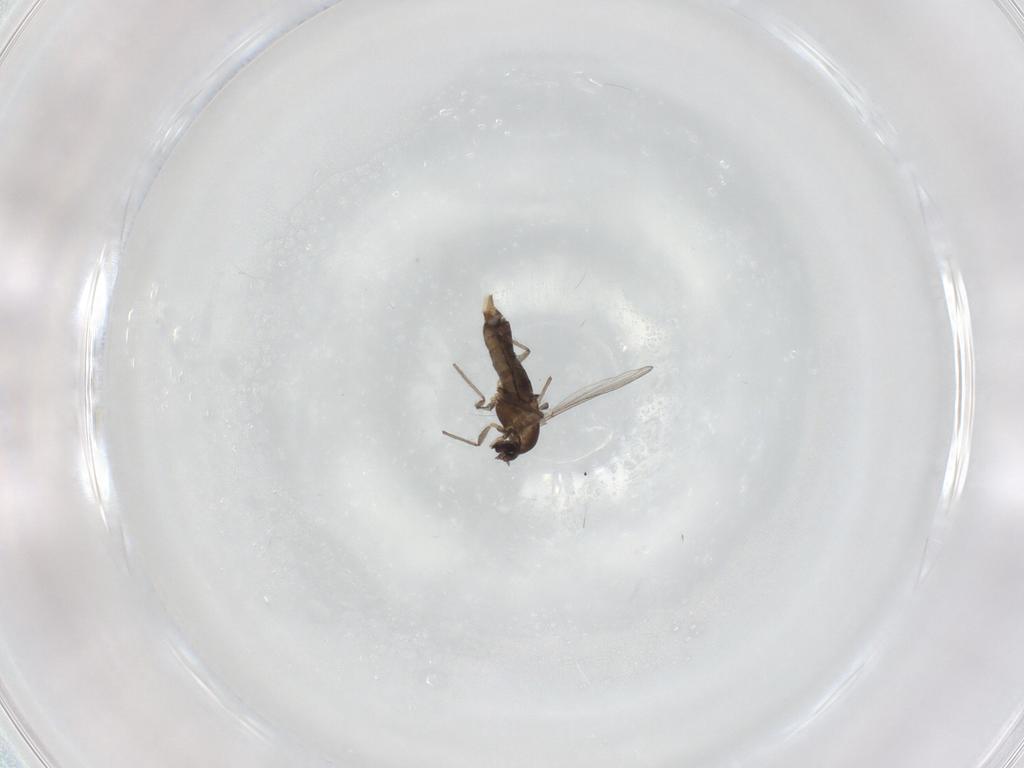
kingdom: Animalia
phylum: Arthropoda
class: Insecta
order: Diptera
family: Chironomidae
